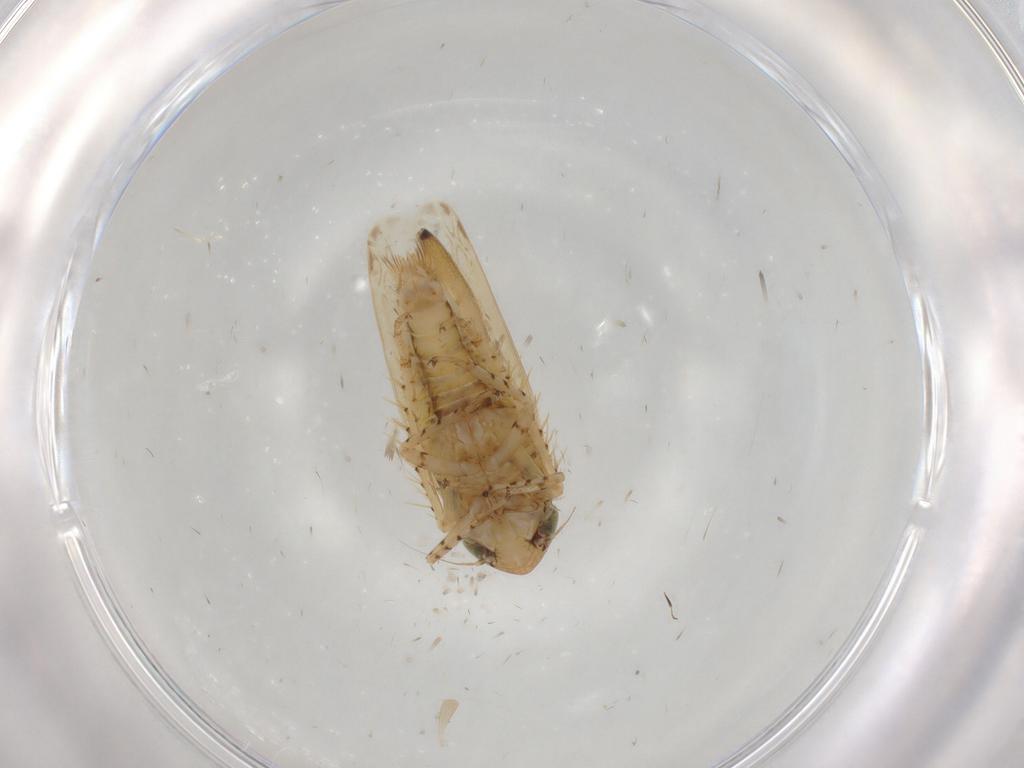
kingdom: Animalia
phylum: Arthropoda
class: Insecta
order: Hemiptera
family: Cicadellidae
